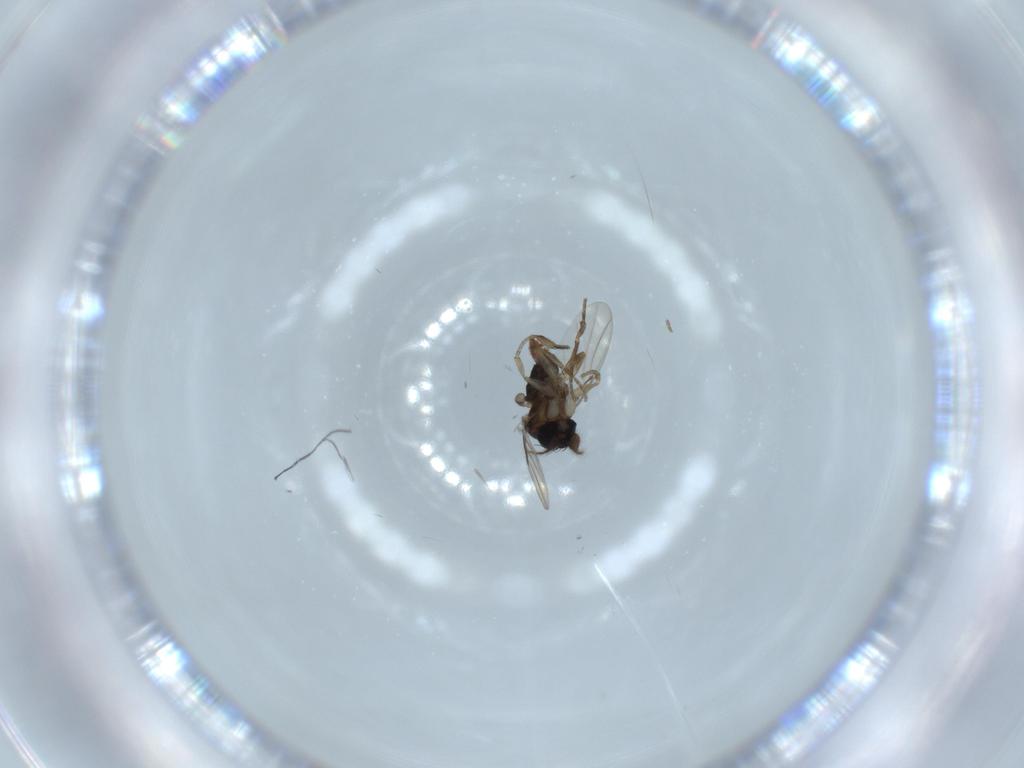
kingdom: Animalia
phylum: Arthropoda
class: Insecta
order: Diptera
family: Phoridae
